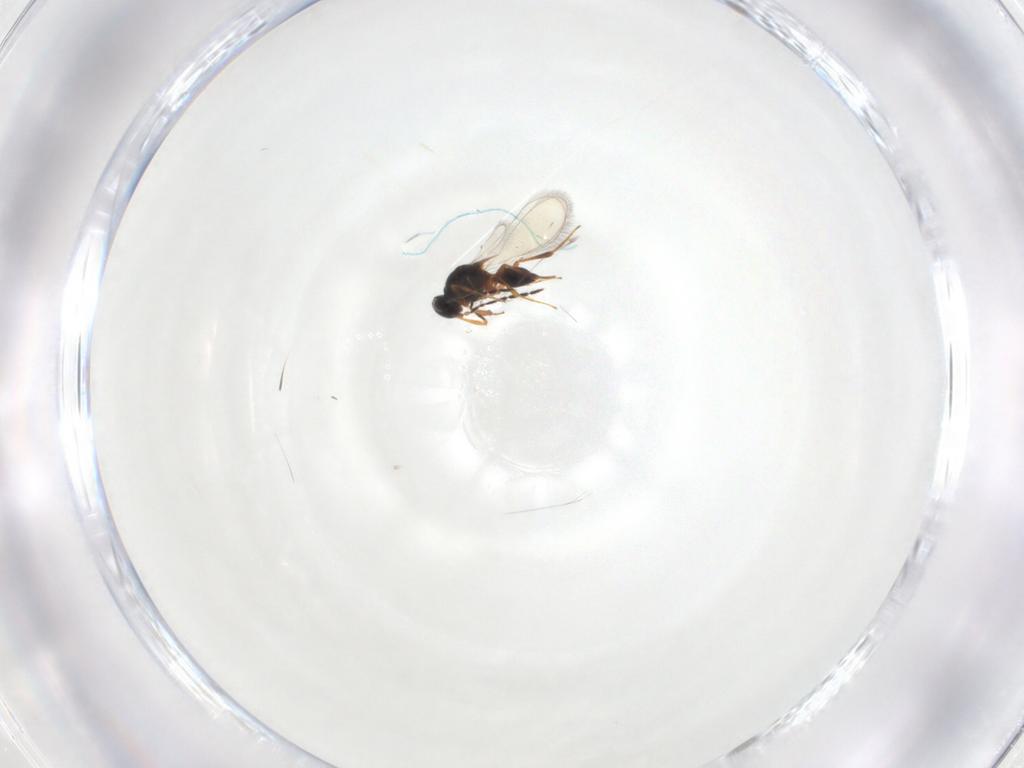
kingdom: Animalia
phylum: Arthropoda
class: Insecta
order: Hymenoptera
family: Platygastridae
